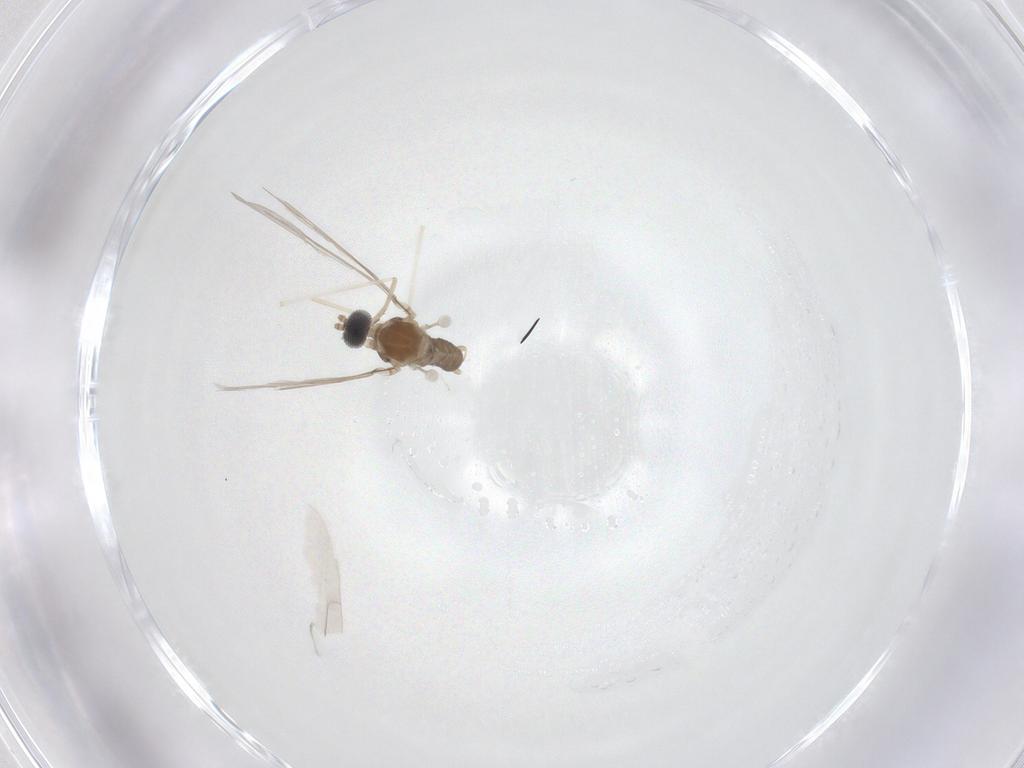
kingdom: Animalia
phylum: Arthropoda
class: Insecta
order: Diptera
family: Cecidomyiidae
